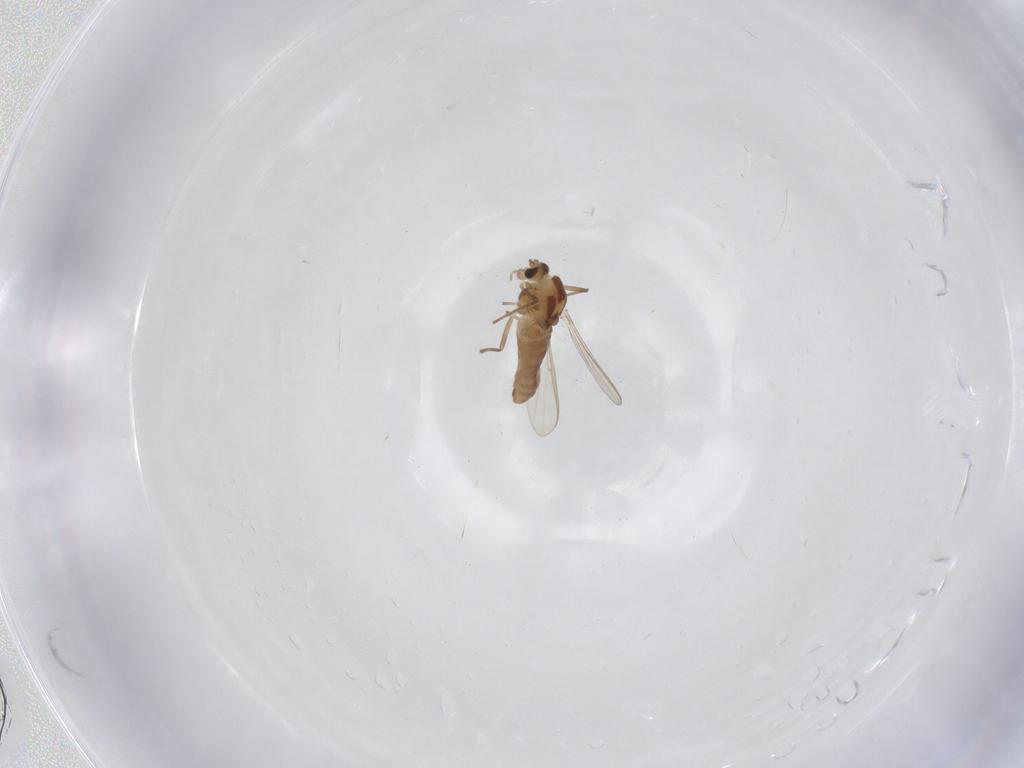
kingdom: Animalia
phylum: Arthropoda
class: Insecta
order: Diptera
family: Chironomidae
